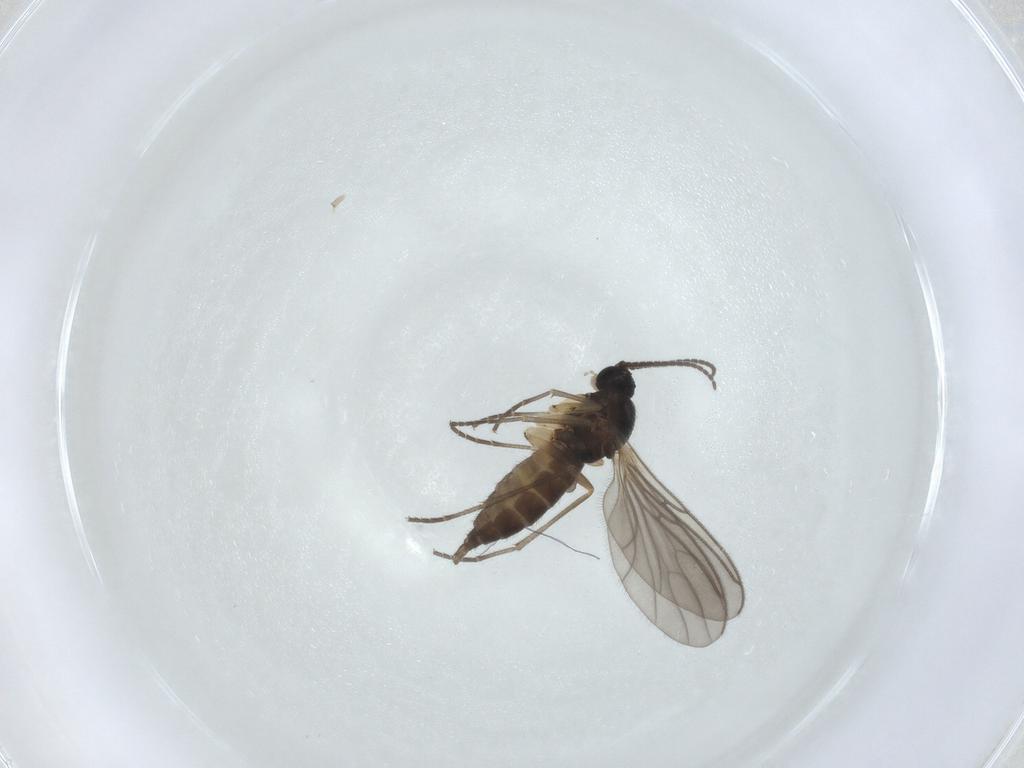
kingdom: Animalia
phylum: Arthropoda
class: Insecta
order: Diptera
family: Sciaridae
